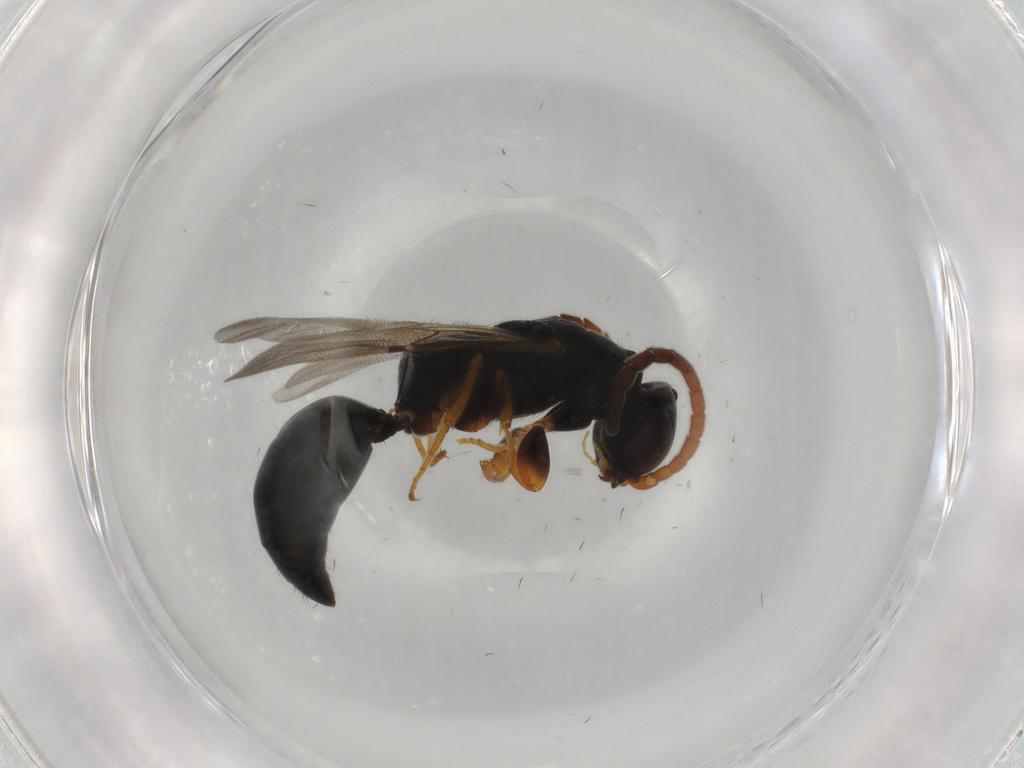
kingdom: Animalia
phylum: Arthropoda
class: Insecta
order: Hymenoptera
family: Bethylidae
